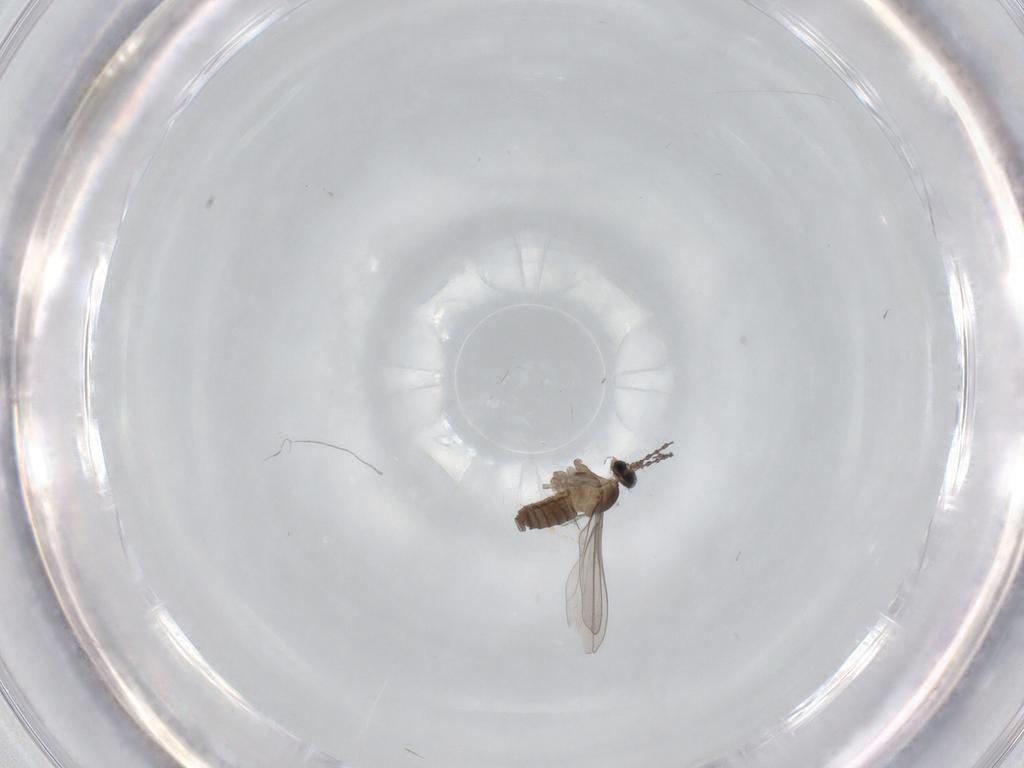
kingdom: Animalia
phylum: Arthropoda
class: Insecta
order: Diptera
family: Cecidomyiidae
